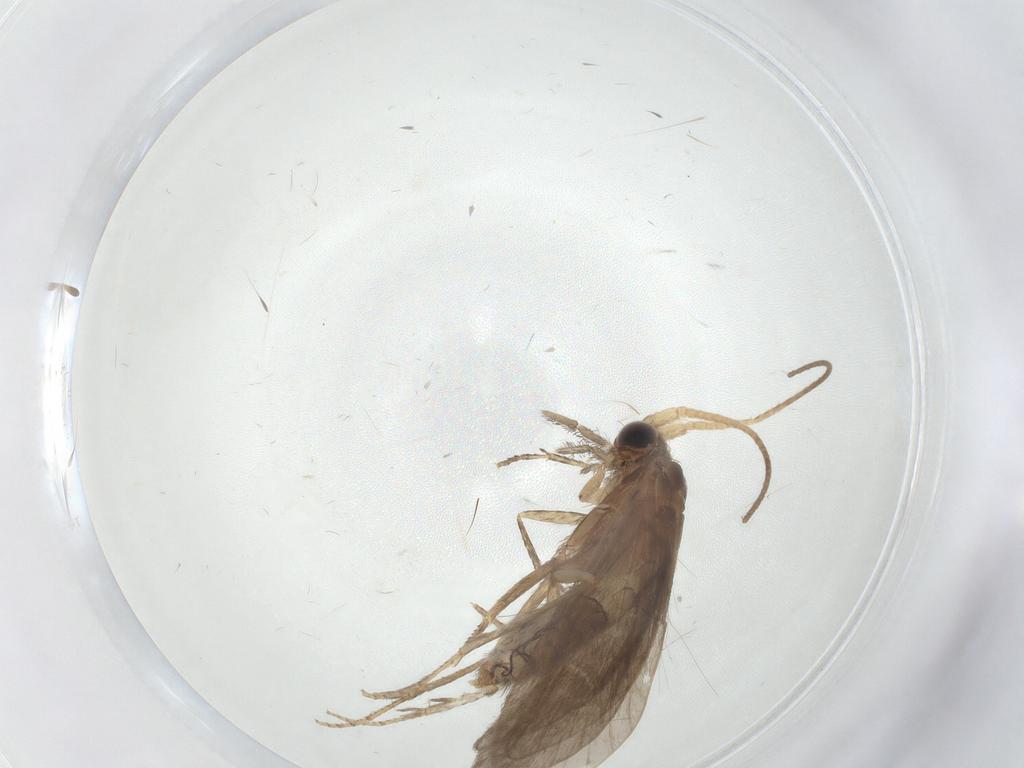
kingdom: Animalia
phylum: Arthropoda
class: Insecta
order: Trichoptera
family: Helicopsychidae
